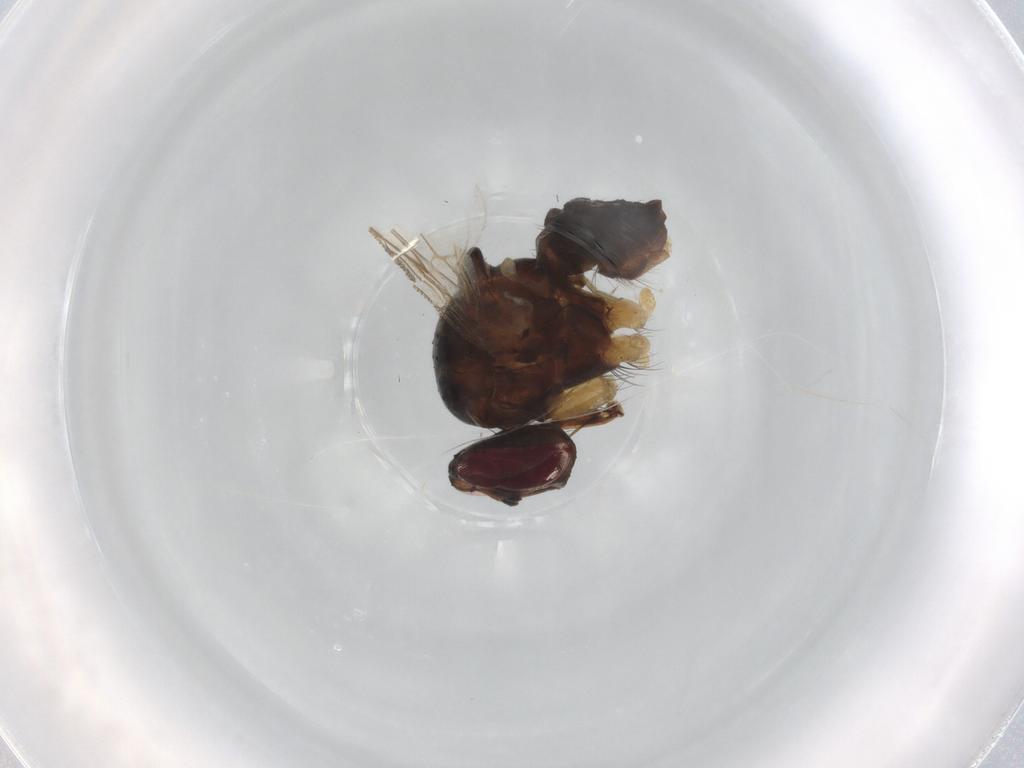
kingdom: Animalia
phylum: Arthropoda
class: Insecta
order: Diptera
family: Muscidae
